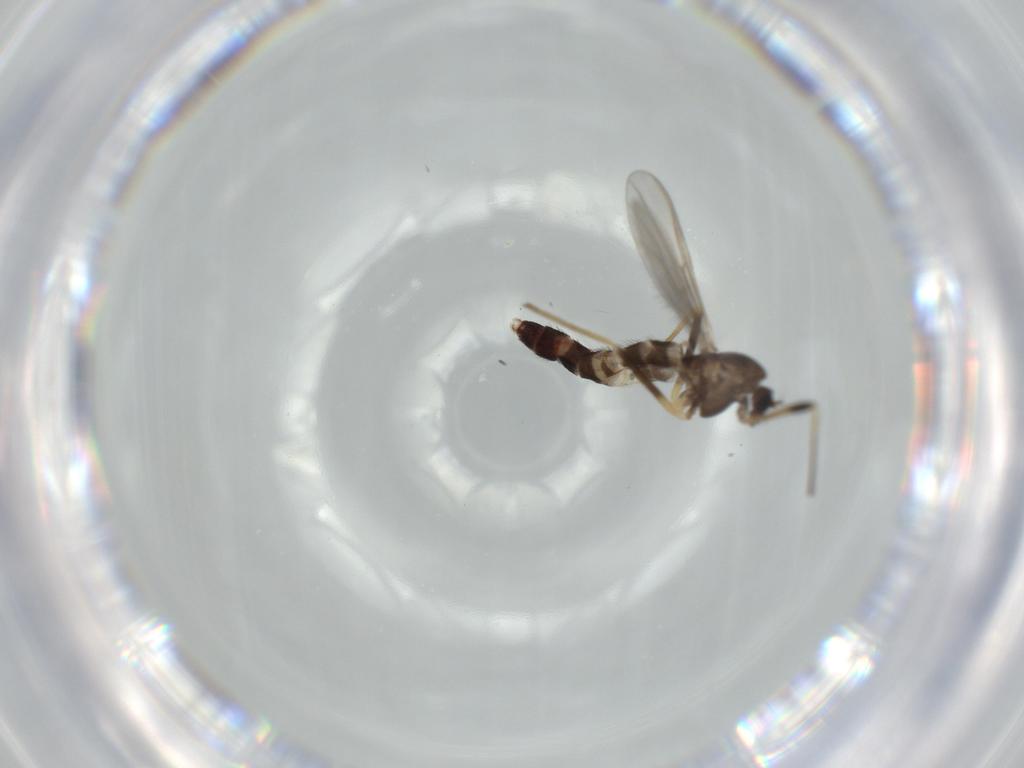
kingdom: Animalia
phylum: Arthropoda
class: Insecta
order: Diptera
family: Chironomidae
